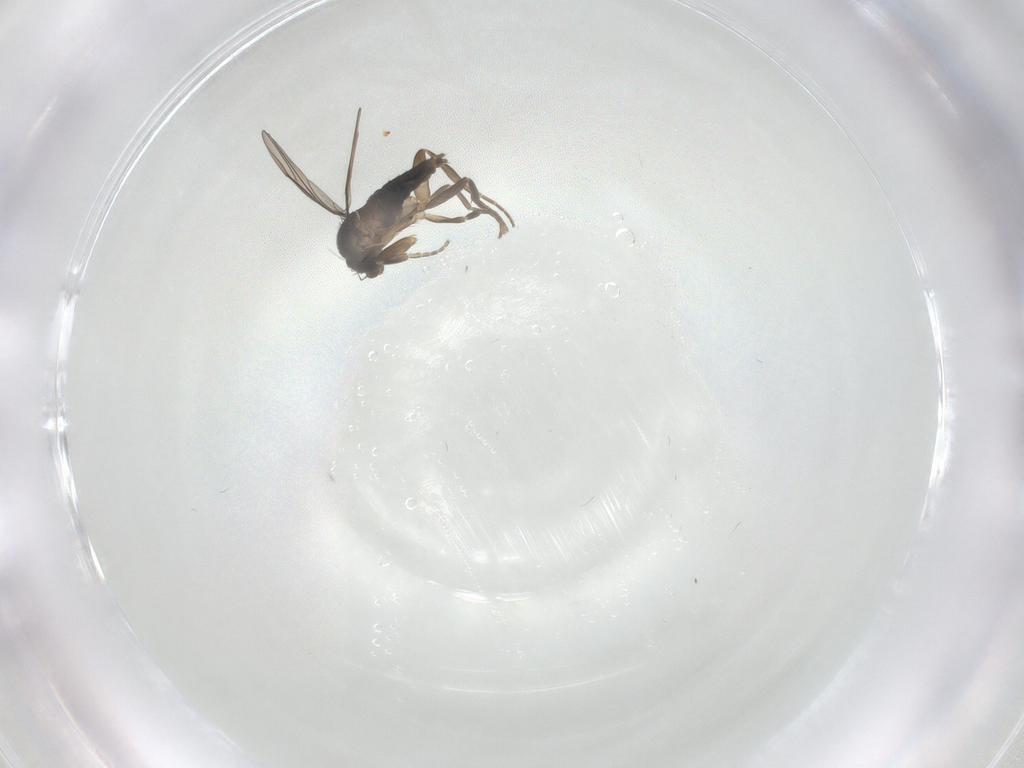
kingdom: Animalia
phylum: Arthropoda
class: Insecta
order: Diptera
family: Phoridae
